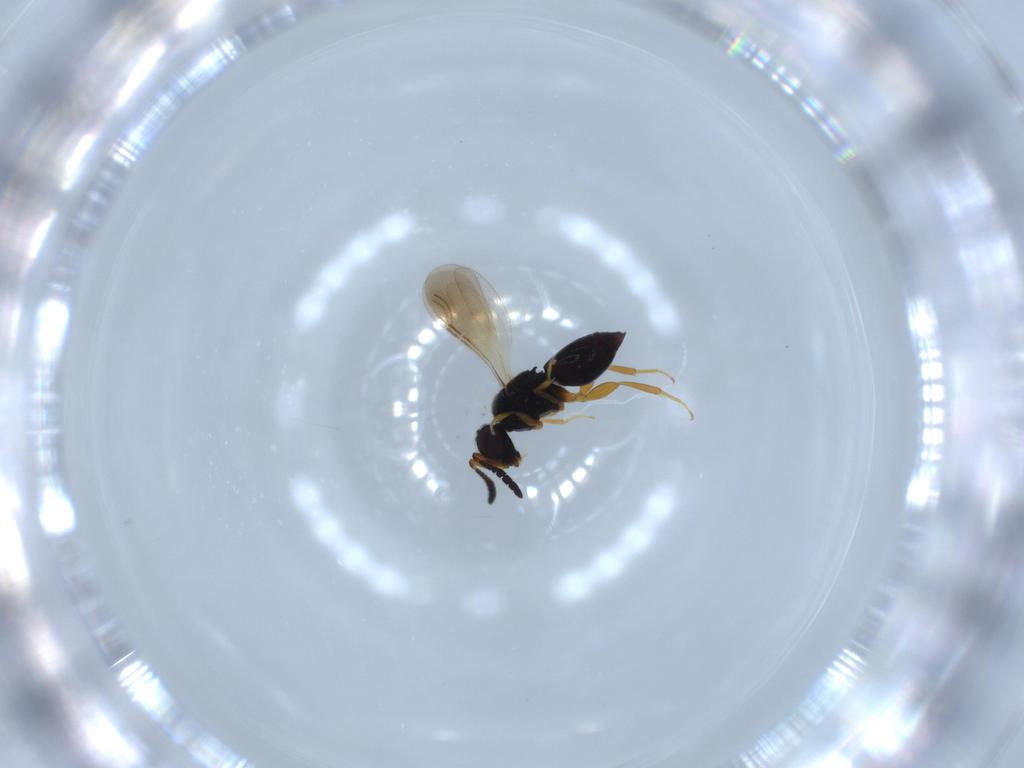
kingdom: Animalia
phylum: Arthropoda
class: Insecta
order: Hymenoptera
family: Ceraphronidae
